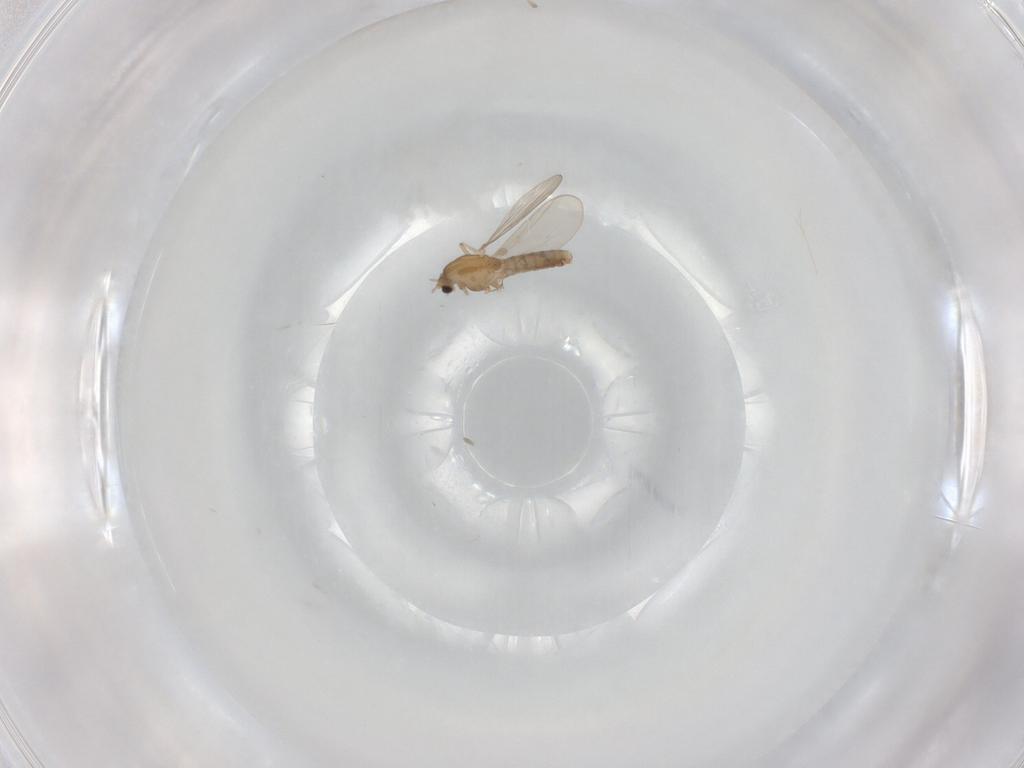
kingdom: Animalia
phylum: Arthropoda
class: Insecta
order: Diptera
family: Chironomidae
